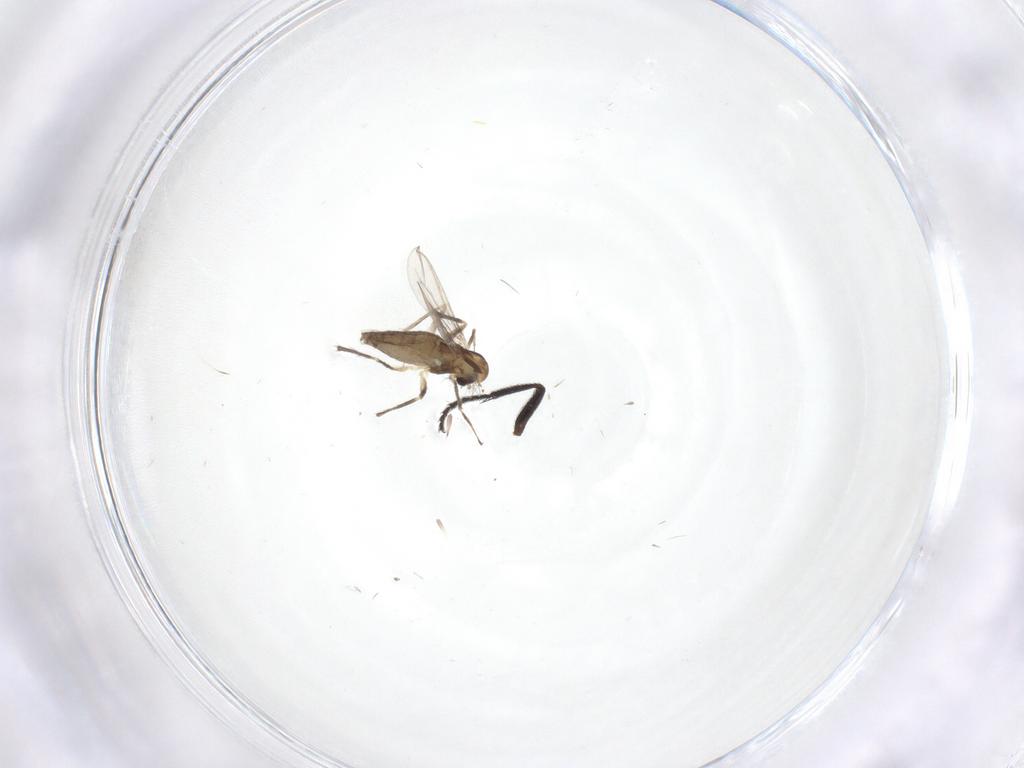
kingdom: Animalia
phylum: Arthropoda
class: Insecta
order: Diptera
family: Chironomidae
